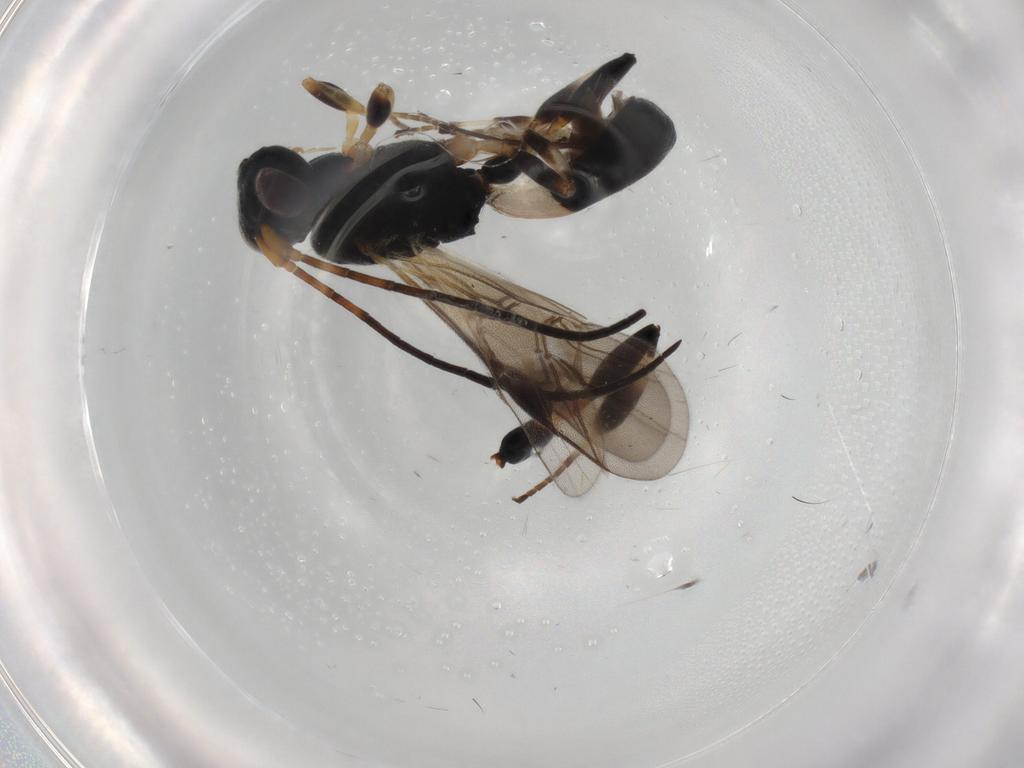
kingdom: Animalia
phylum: Arthropoda
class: Insecta
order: Hymenoptera
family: Braconidae
